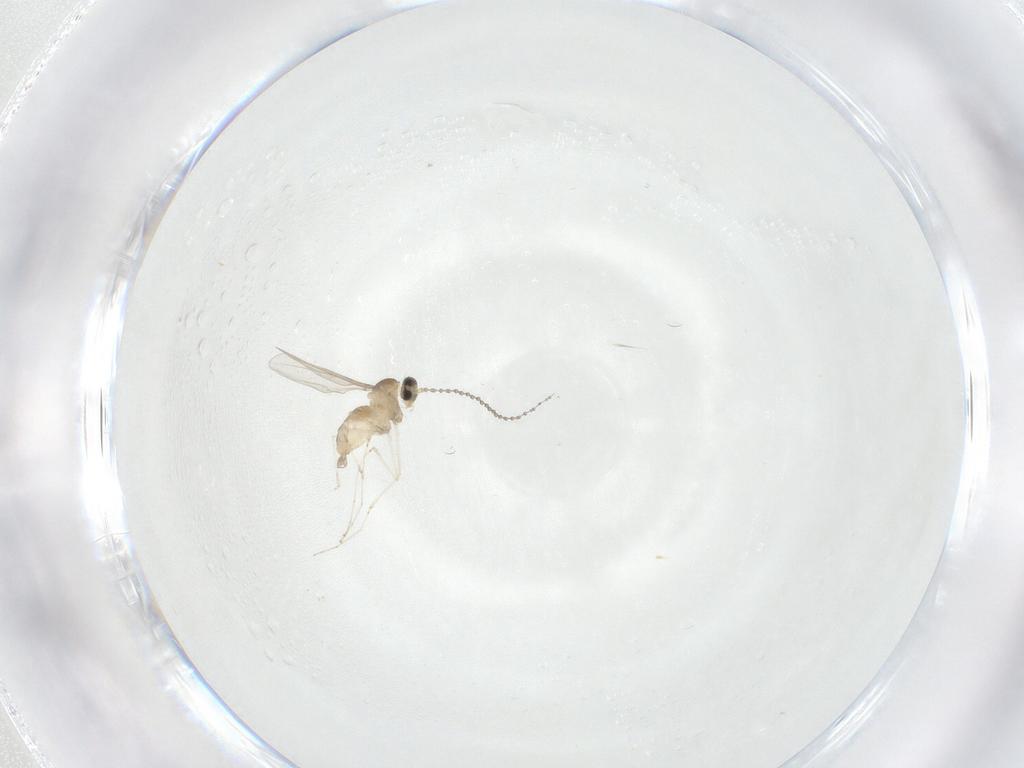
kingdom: Animalia
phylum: Arthropoda
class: Insecta
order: Diptera
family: Cecidomyiidae
